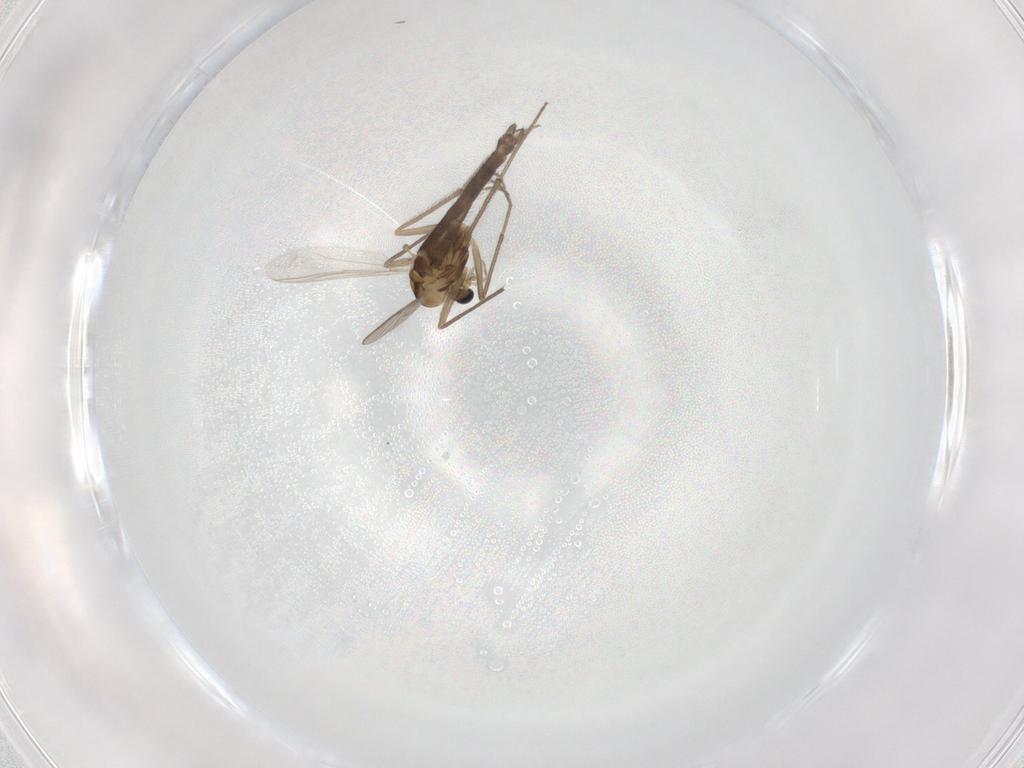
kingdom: Animalia
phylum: Arthropoda
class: Insecta
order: Diptera
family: Chironomidae
